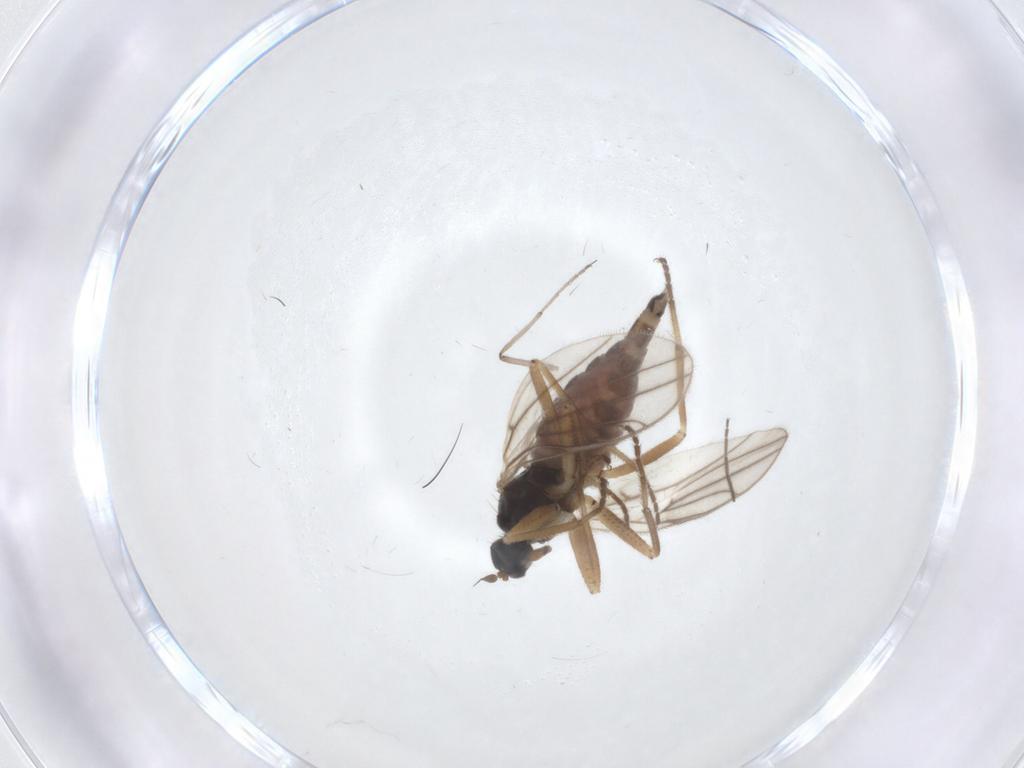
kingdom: Animalia
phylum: Arthropoda
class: Insecta
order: Diptera
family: Hybotidae
